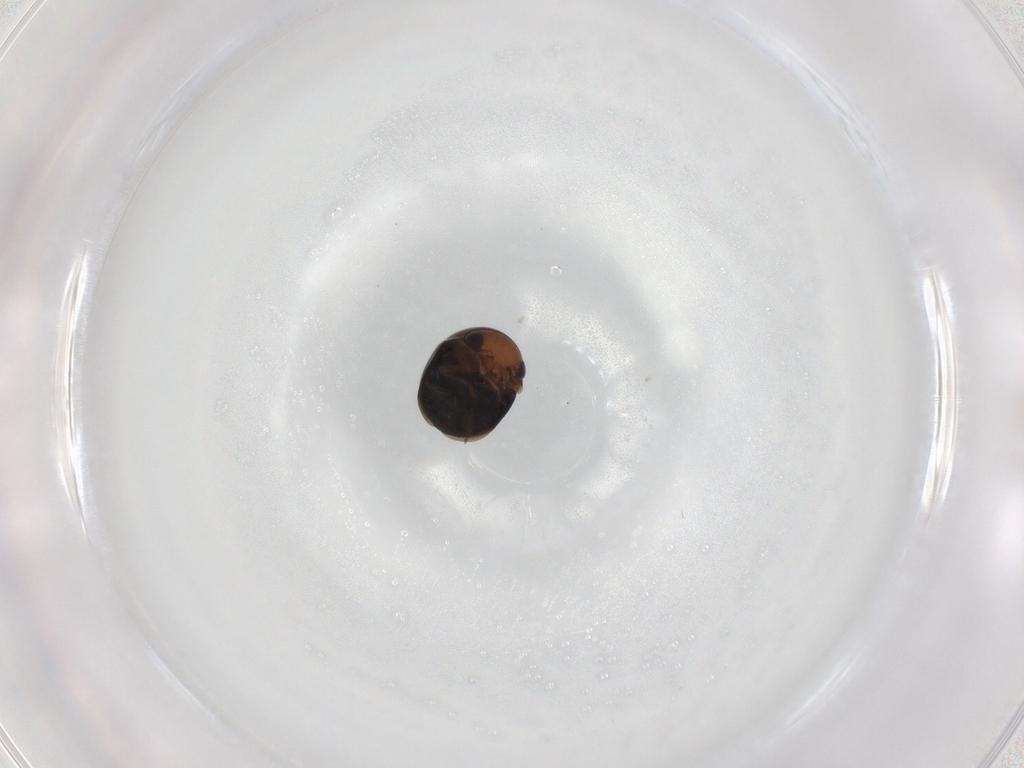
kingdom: Animalia
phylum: Arthropoda
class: Insecta
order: Coleoptera
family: Cybocephalidae
